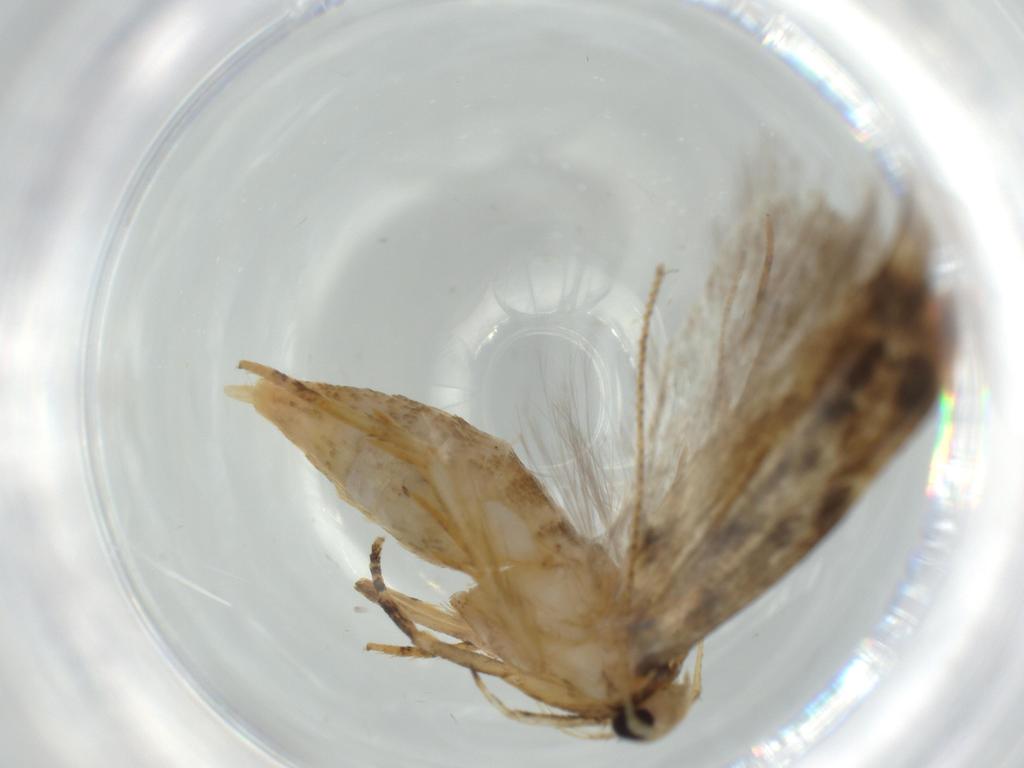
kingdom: Animalia
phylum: Arthropoda
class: Insecta
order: Lepidoptera
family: Autostichidae
